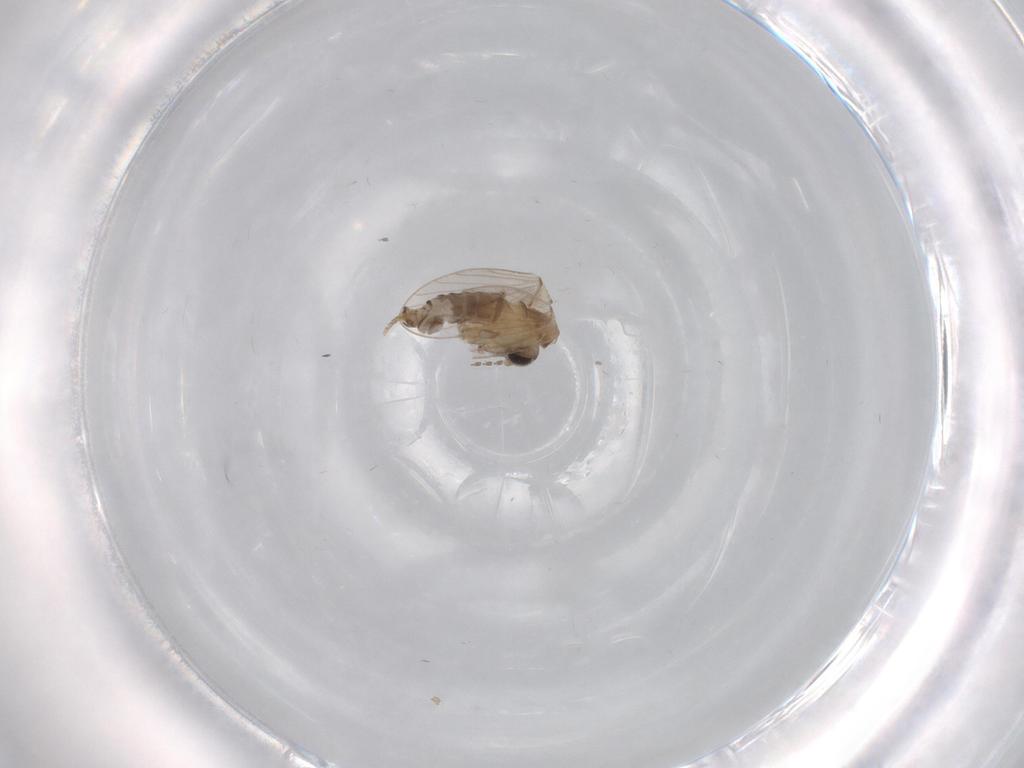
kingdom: Animalia
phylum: Arthropoda
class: Insecta
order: Diptera
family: Psychodidae
